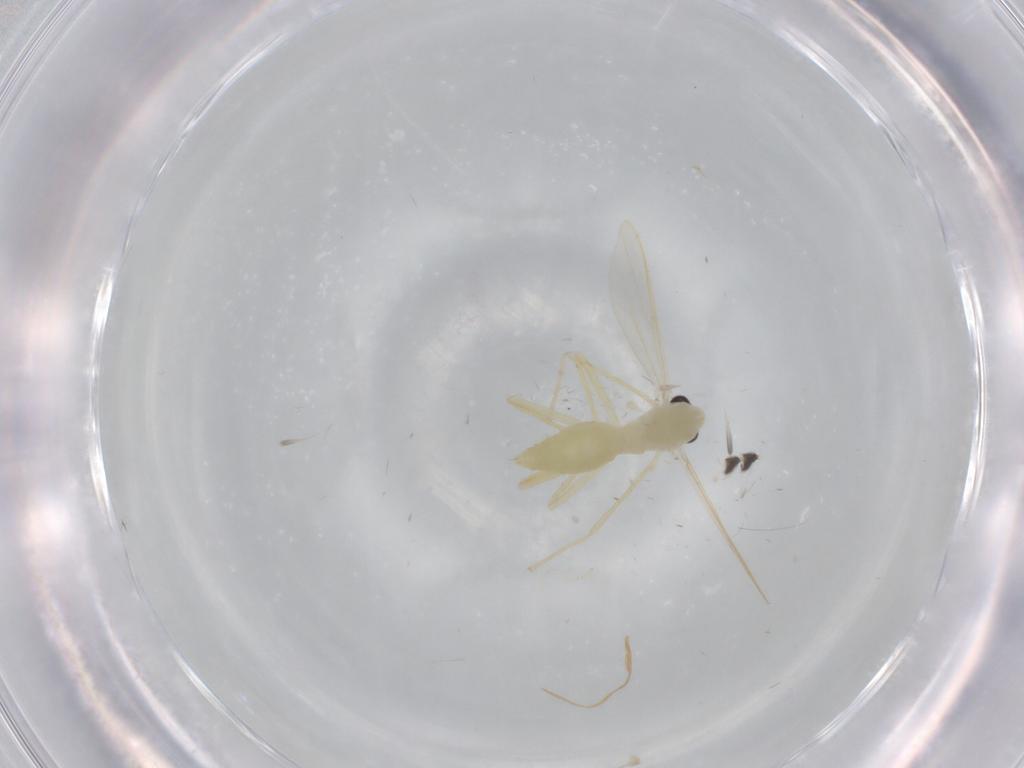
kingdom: Animalia
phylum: Arthropoda
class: Insecta
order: Diptera
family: Cecidomyiidae
